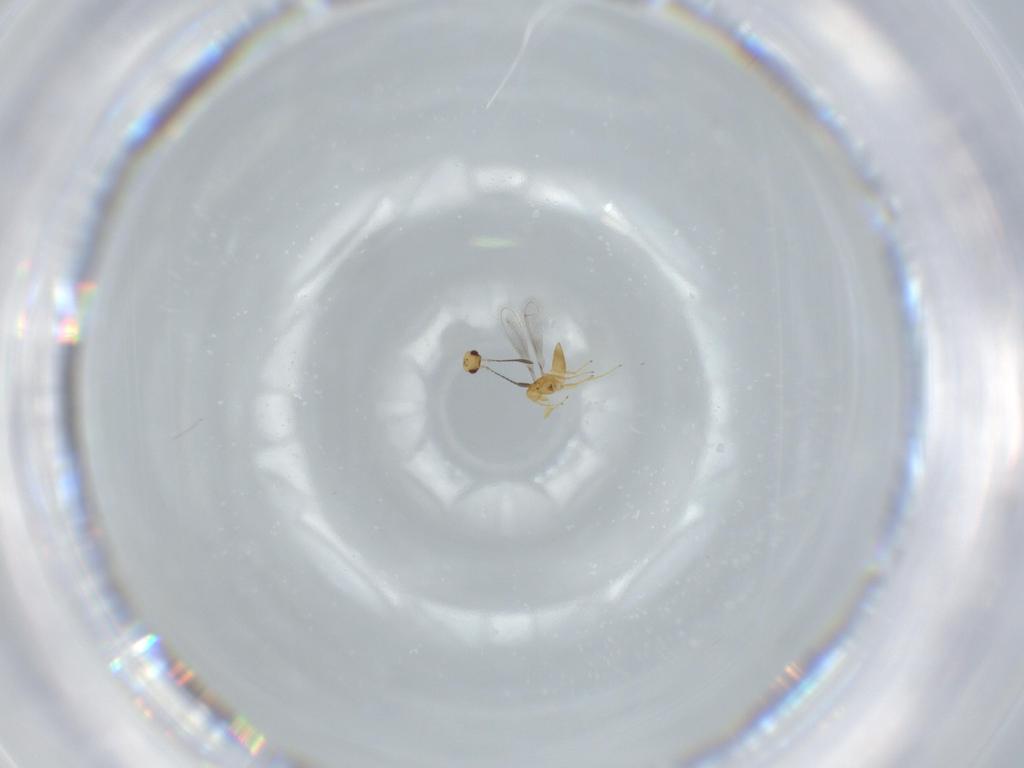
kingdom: Animalia
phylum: Arthropoda
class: Insecta
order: Hymenoptera
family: Mymaridae
